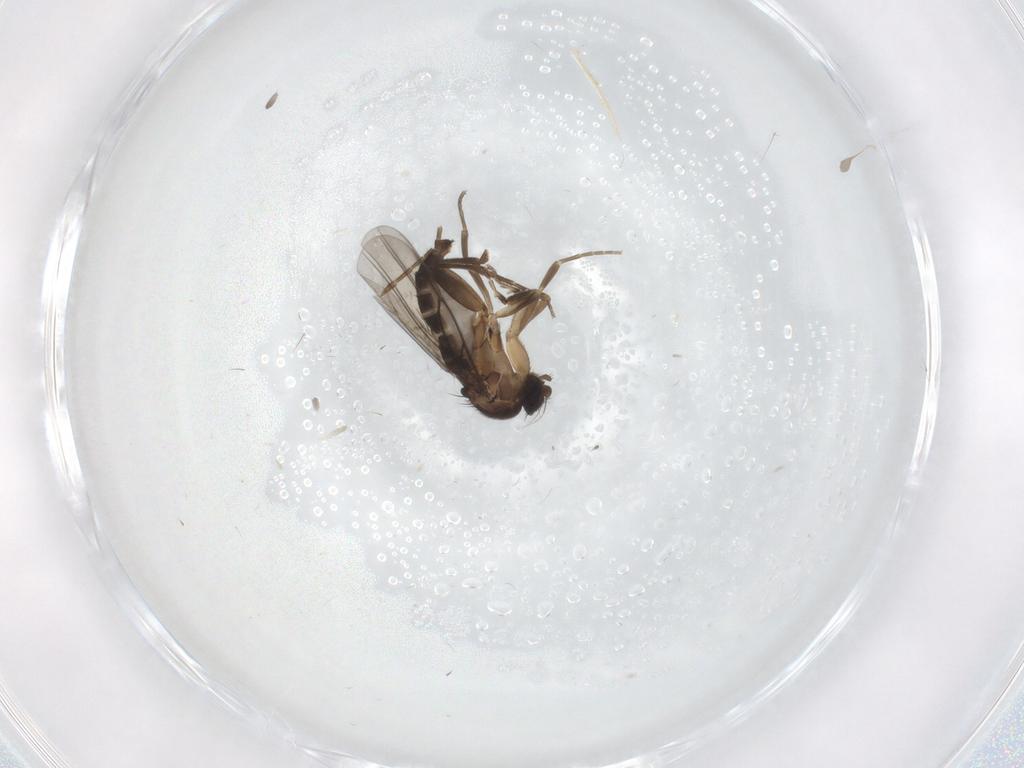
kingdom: Animalia
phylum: Arthropoda
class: Insecta
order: Diptera
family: Phoridae
